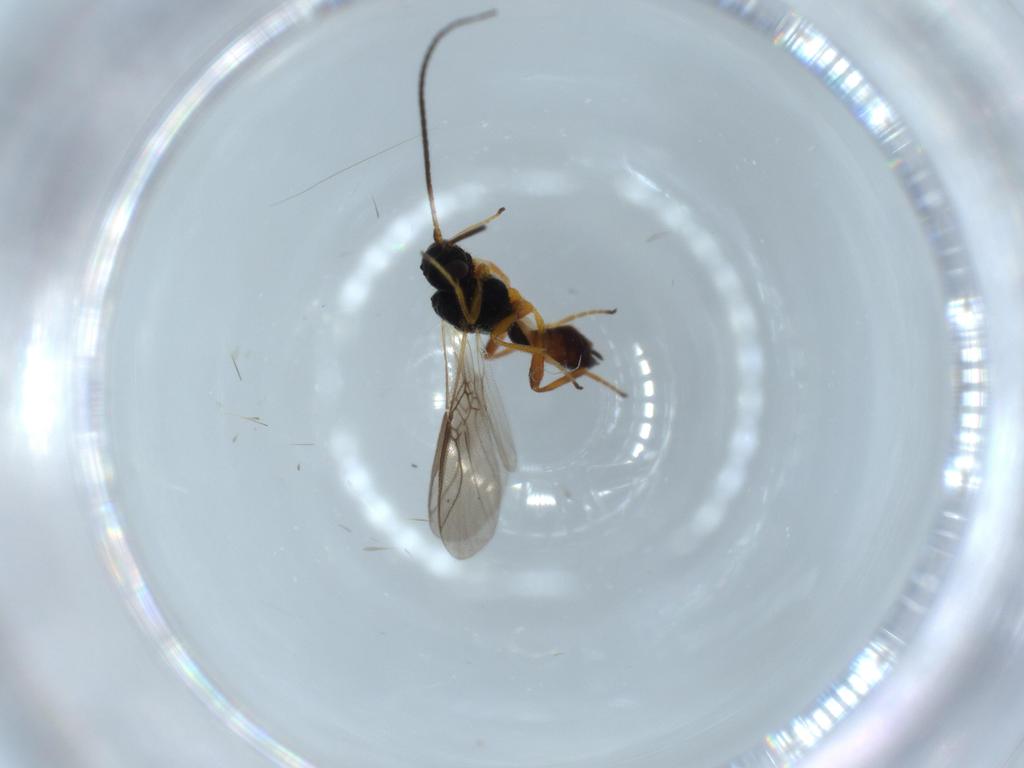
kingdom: Animalia
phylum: Arthropoda
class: Insecta
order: Hymenoptera
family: Braconidae
